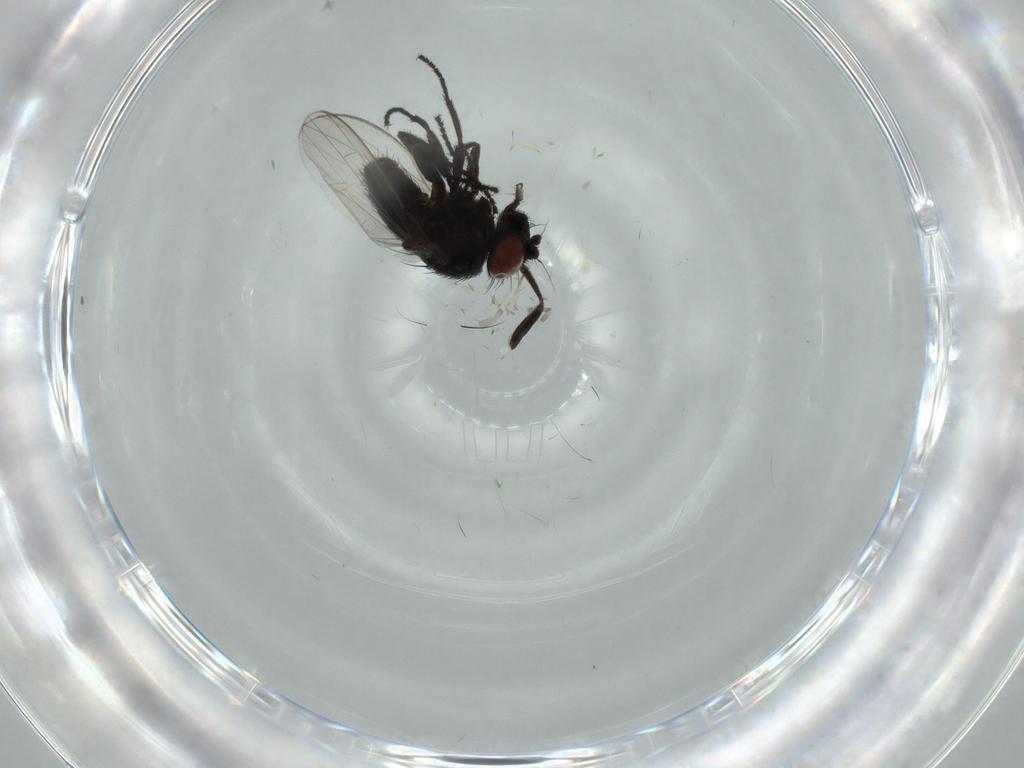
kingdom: Animalia
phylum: Arthropoda
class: Insecta
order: Diptera
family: Milichiidae
